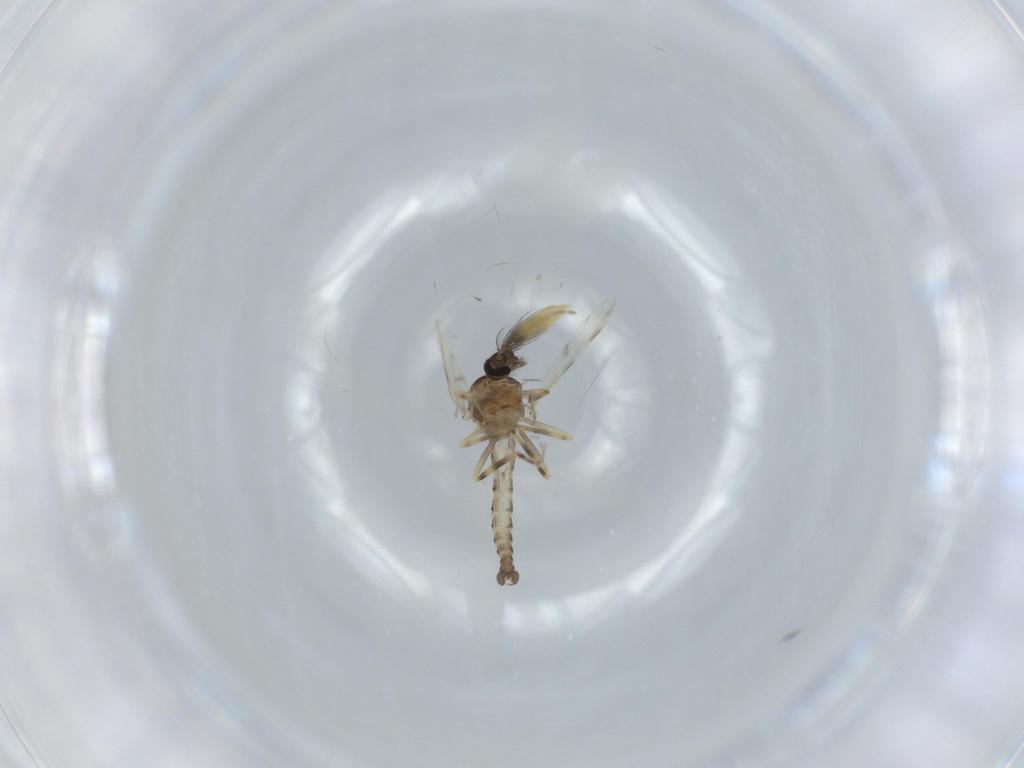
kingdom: Animalia
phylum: Arthropoda
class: Insecta
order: Diptera
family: Ceratopogonidae
